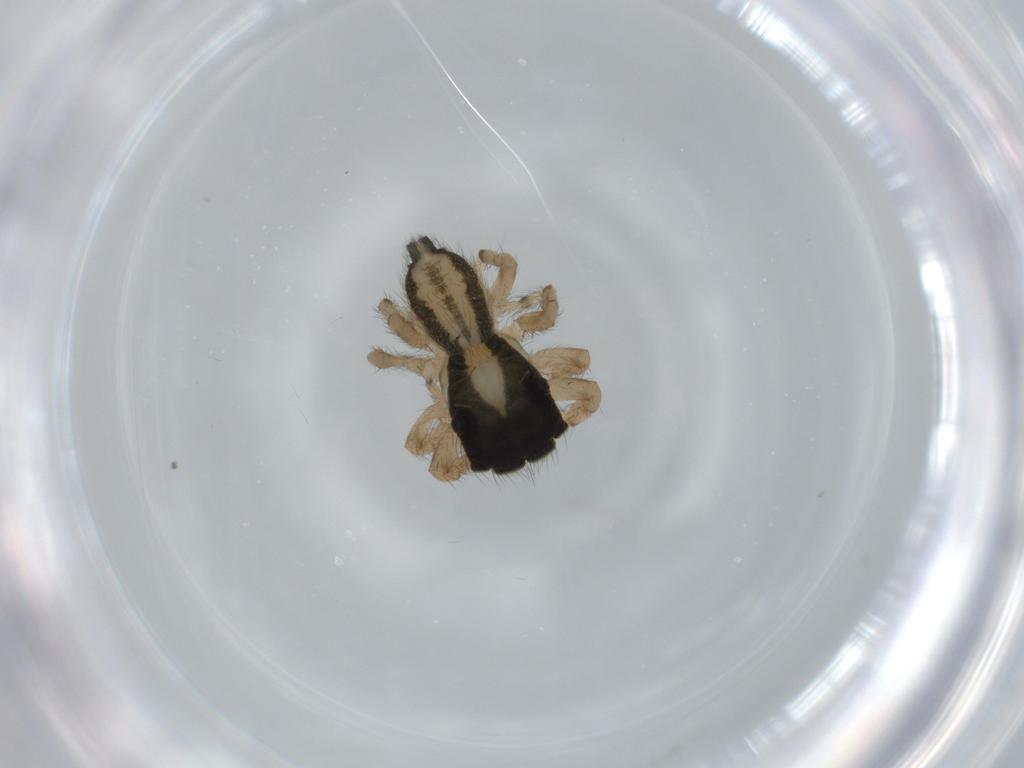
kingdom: Animalia
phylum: Arthropoda
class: Arachnida
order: Araneae
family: Salticidae
